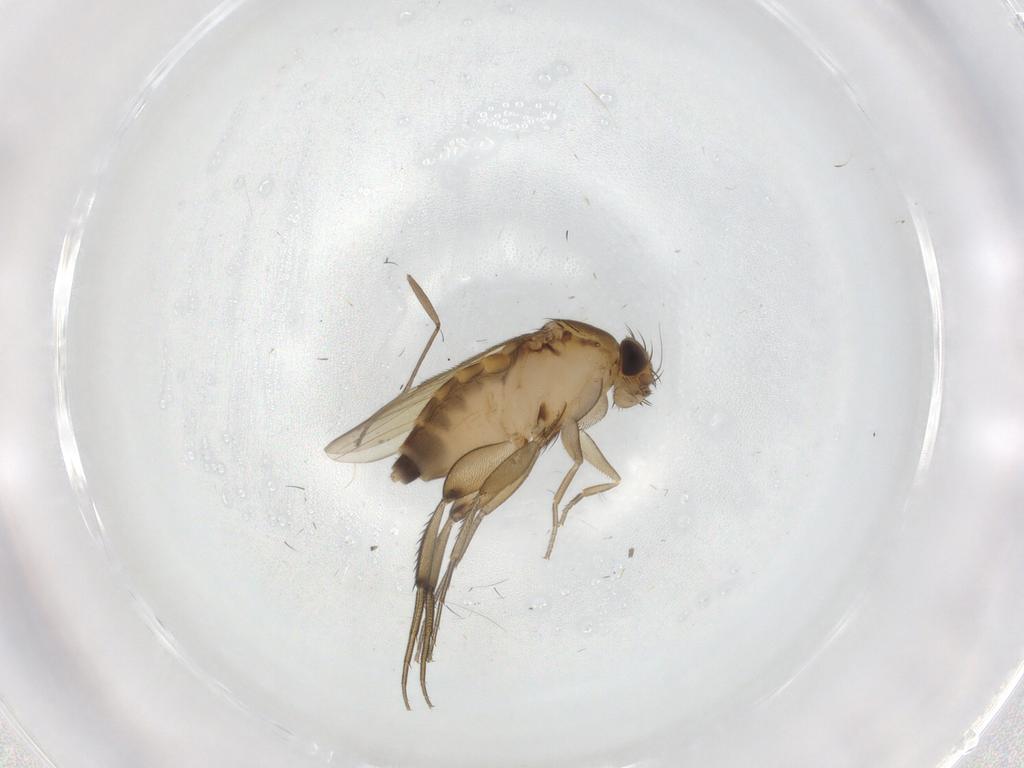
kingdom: Animalia
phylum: Arthropoda
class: Insecta
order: Diptera
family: Phoridae
